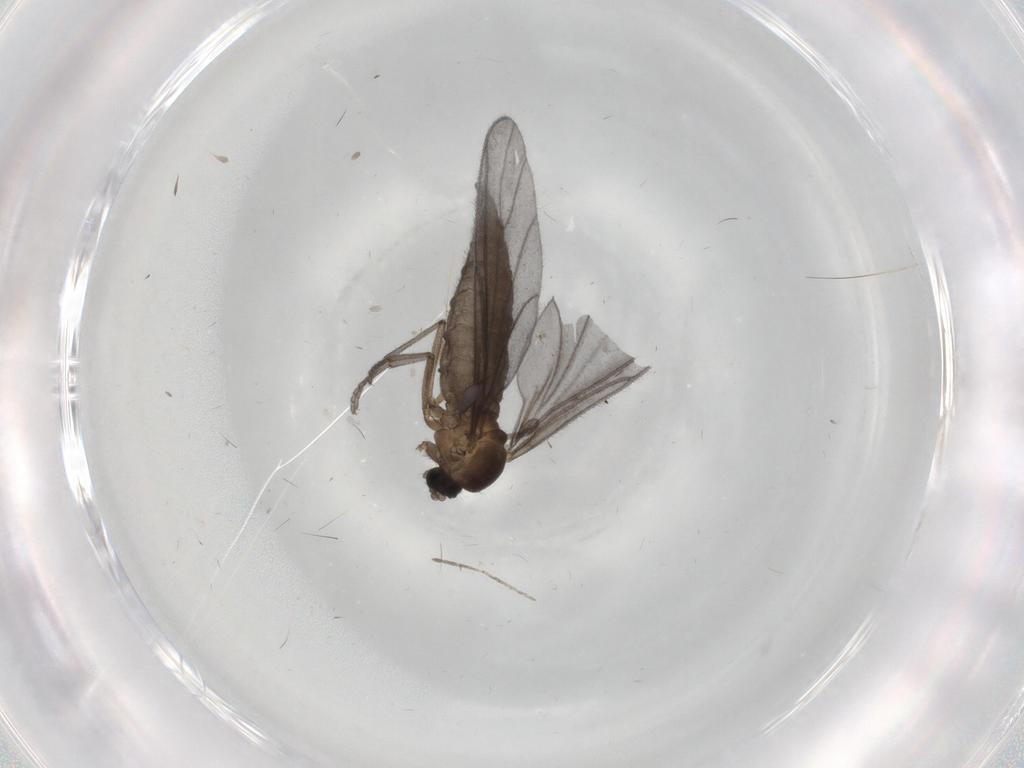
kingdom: Animalia
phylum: Arthropoda
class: Insecta
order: Diptera
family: Sciaridae
